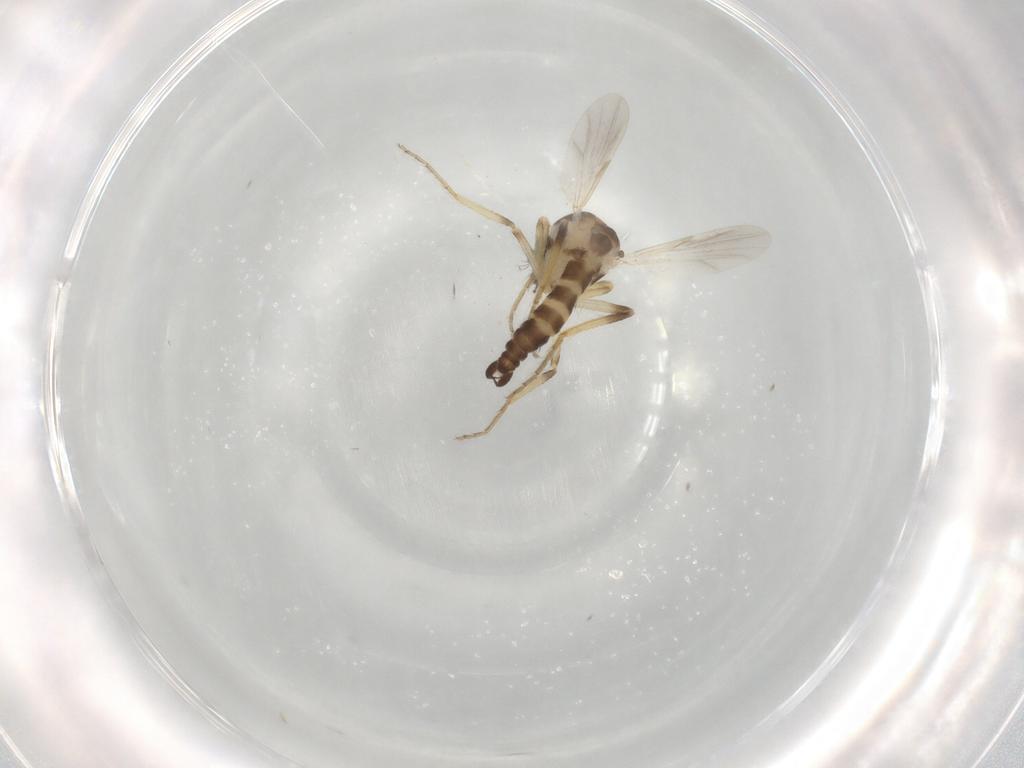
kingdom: Animalia
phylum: Arthropoda
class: Insecta
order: Diptera
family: Ceratopogonidae
